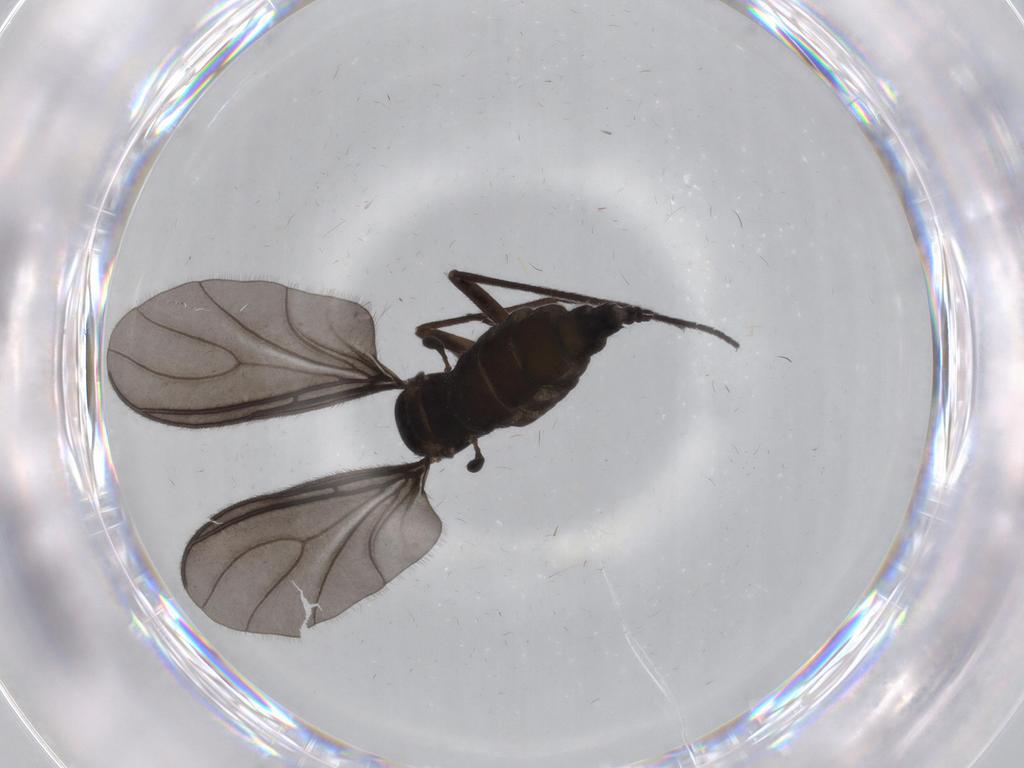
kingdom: Animalia
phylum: Arthropoda
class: Insecta
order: Diptera
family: Sciaridae
